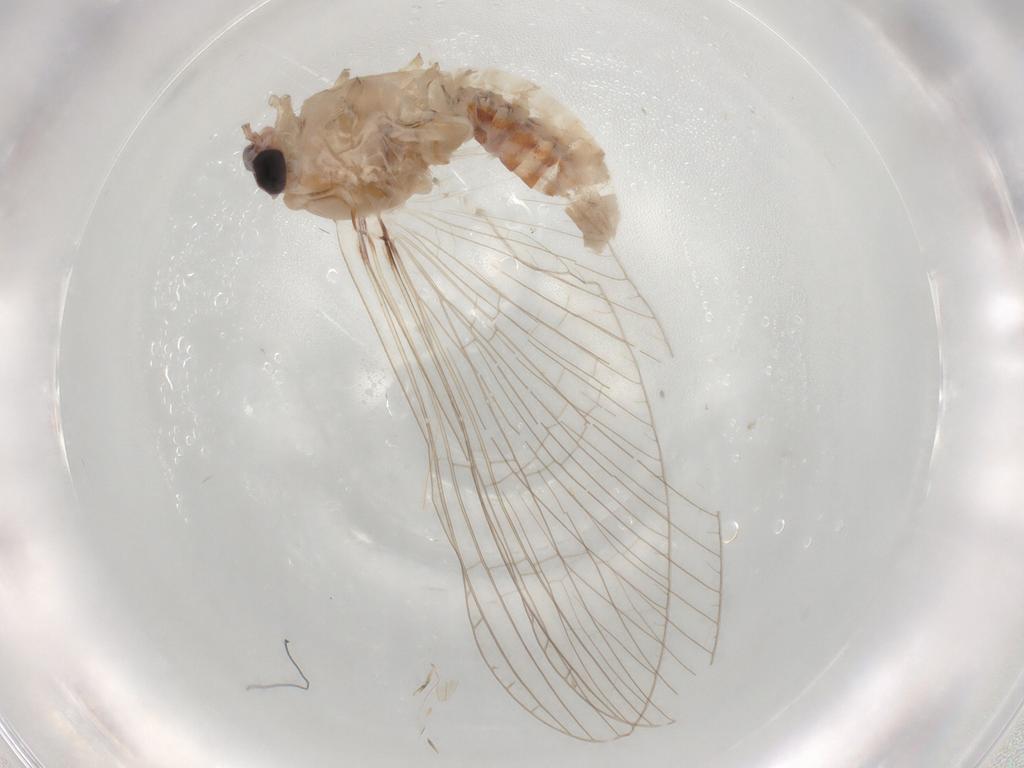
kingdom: Animalia
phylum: Arthropoda
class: Insecta
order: Ephemeroptera
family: Baetidae
